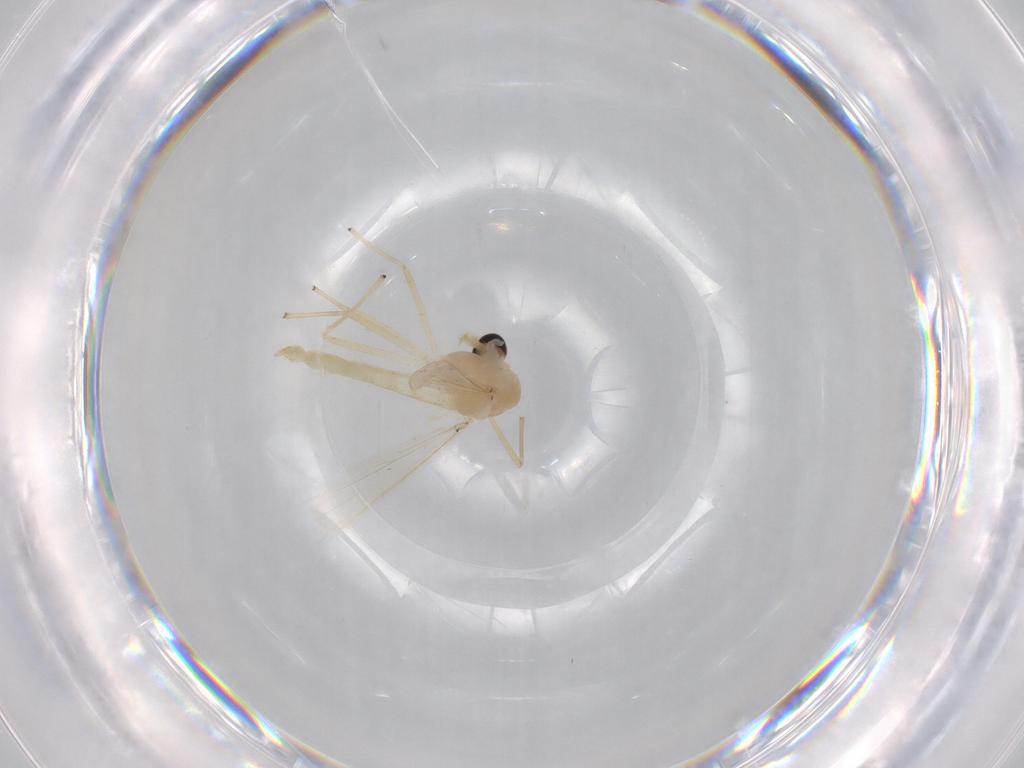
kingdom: Animalia
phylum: Arthropoda
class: Insecta
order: Diptera
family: Chironomidae
